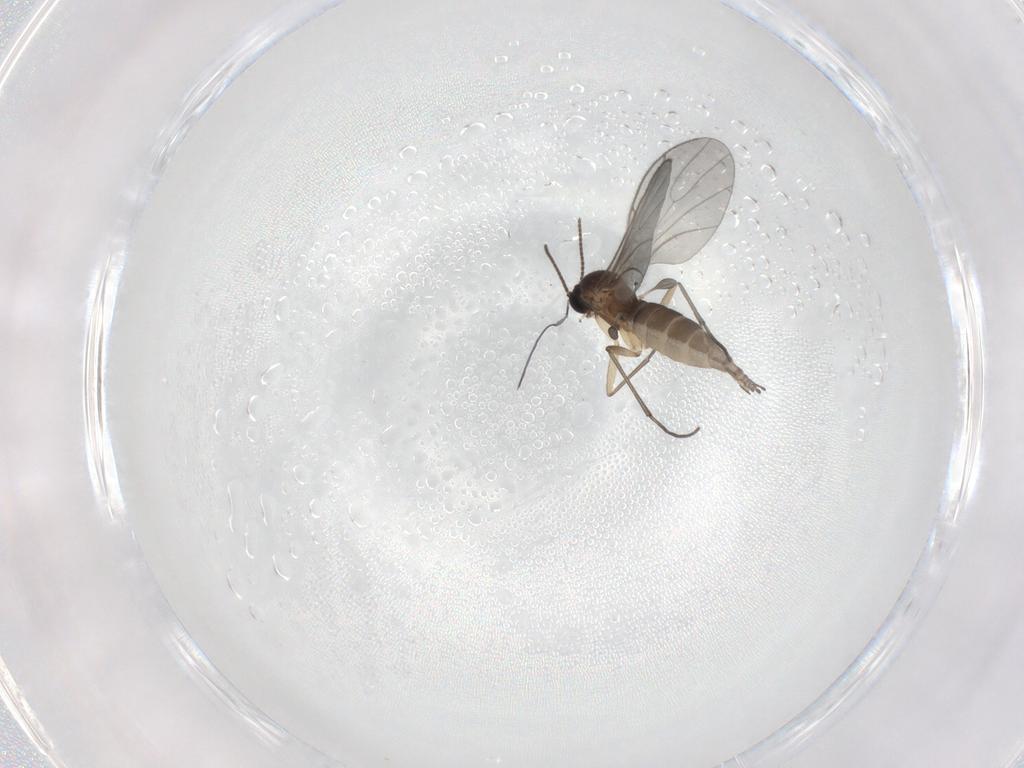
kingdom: Animalia
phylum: Arthropoda
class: Insecta
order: Diptera
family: Sciaridae
